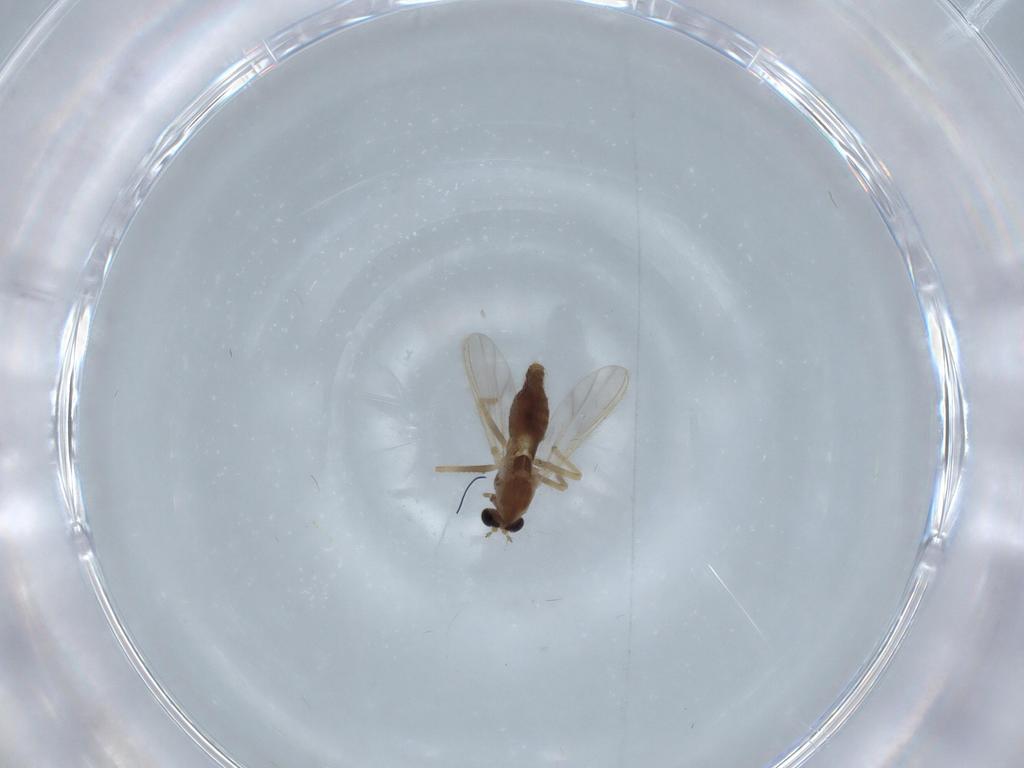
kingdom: Animalia
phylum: Arthropoda
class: Insecta
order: Diptera
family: Chironomidae
